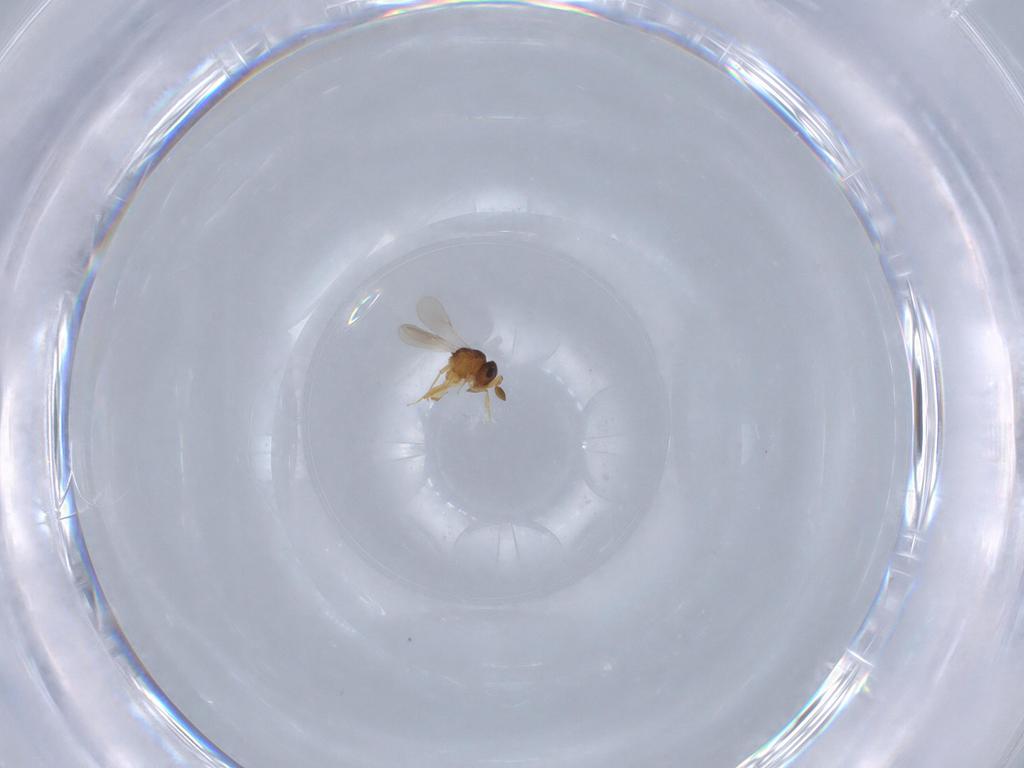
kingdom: Animalia
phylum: Arthropoda
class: Insecta
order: Hymenoptera
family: Scelionidae
